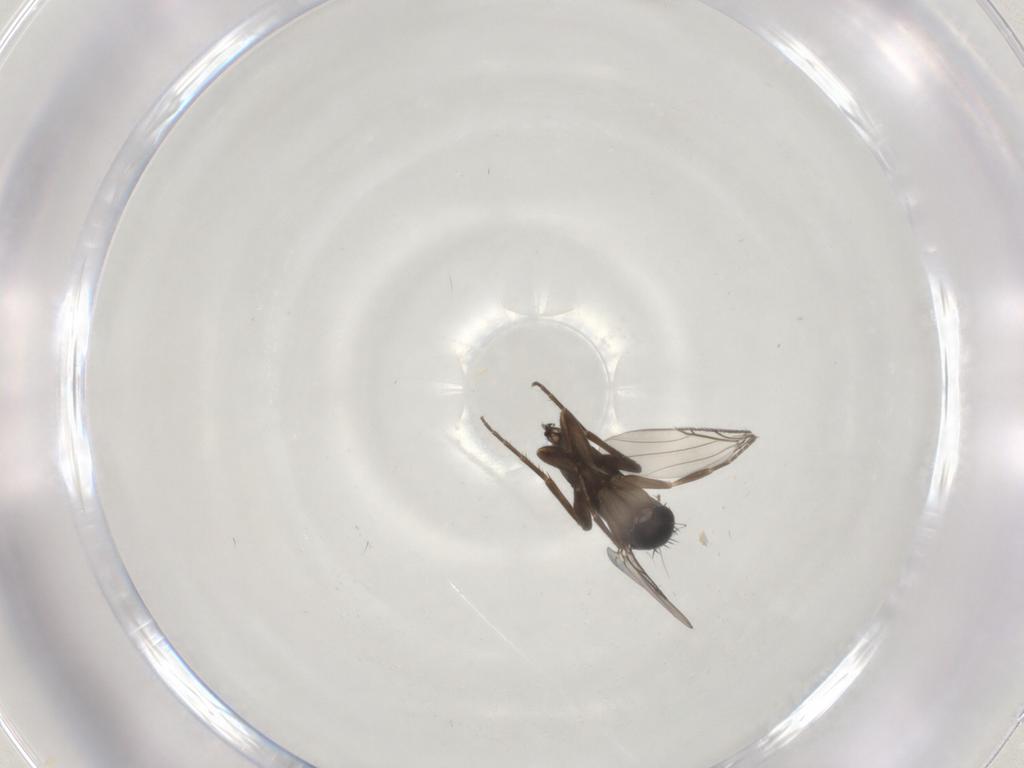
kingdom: Animalia
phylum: Arthropoda
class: Insecta
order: Diptera
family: Phoridae
